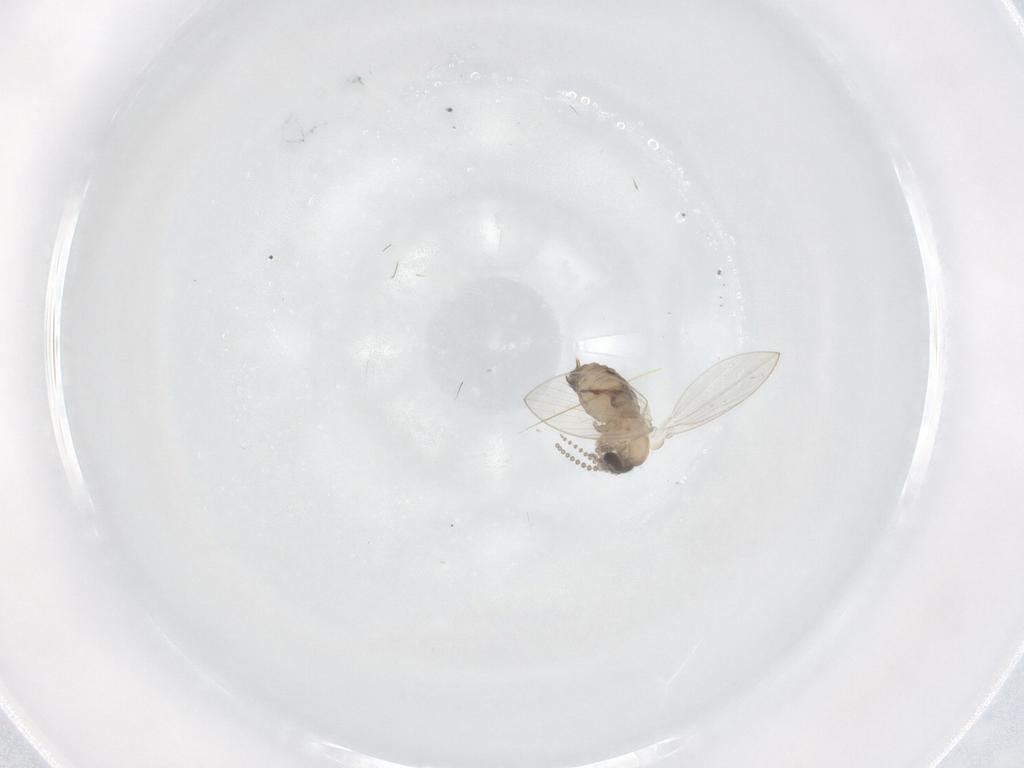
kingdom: Animalia
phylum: Arthropoda
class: Insecta
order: Diptera
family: Psychodidae
